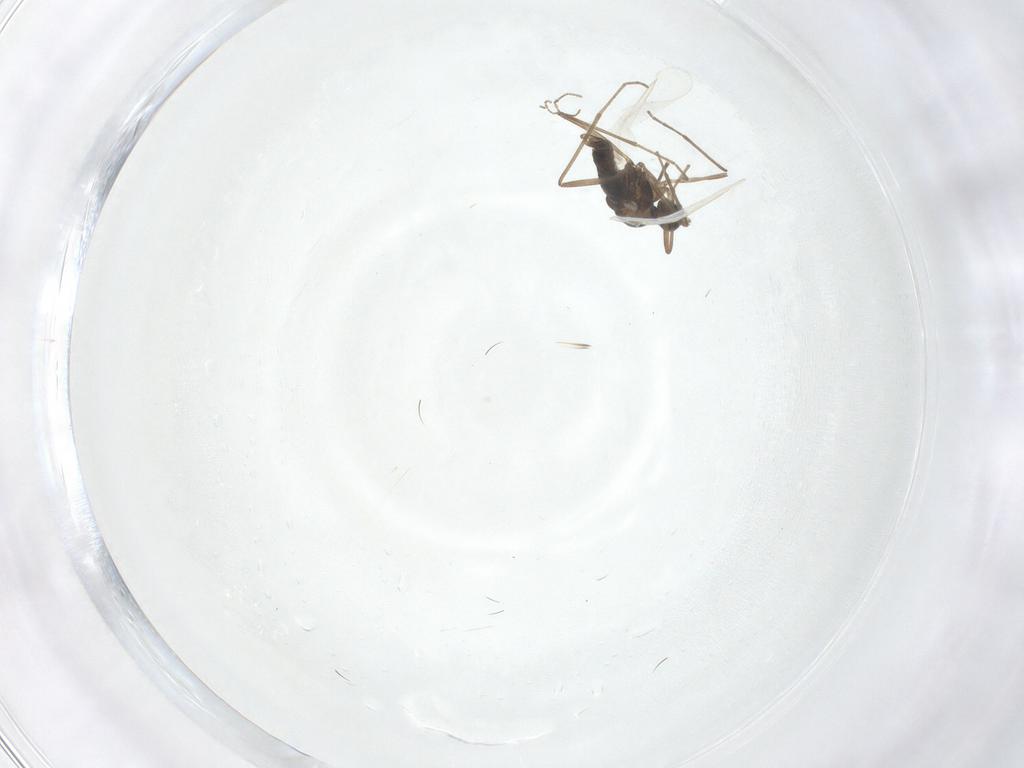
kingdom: Animalia
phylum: Arthropoda
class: Insecta
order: Diptera
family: Cecidomyiidae
